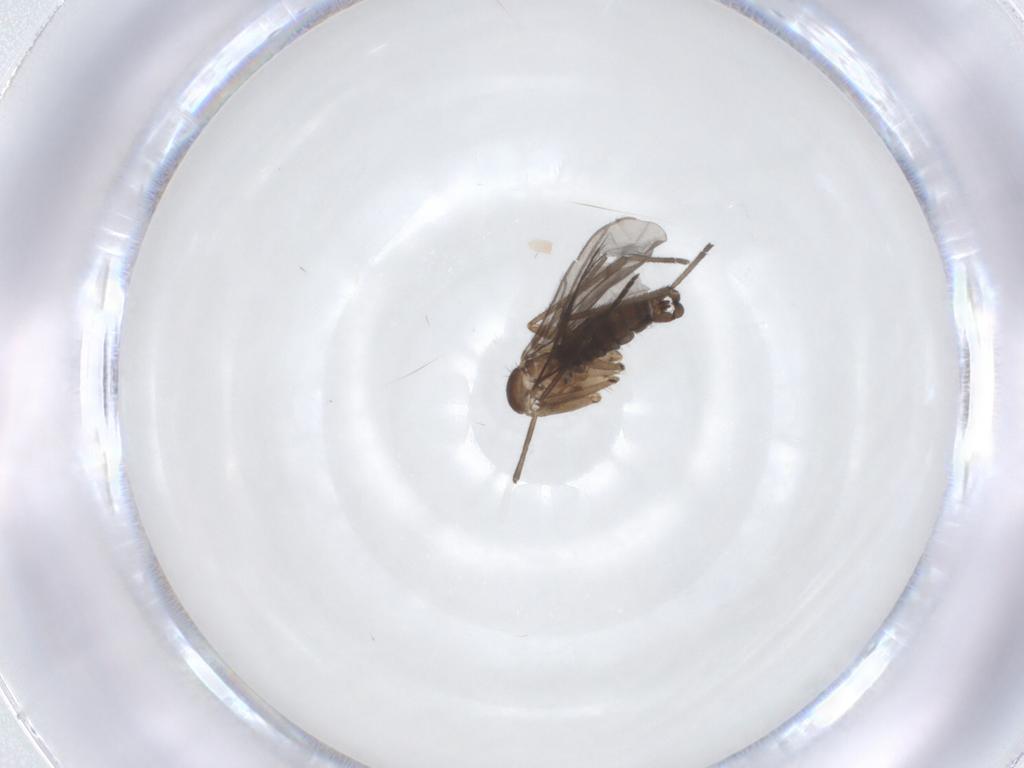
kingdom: Animalia
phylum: Arthropoda
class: Insecta
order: Diptera
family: Sciaridae
